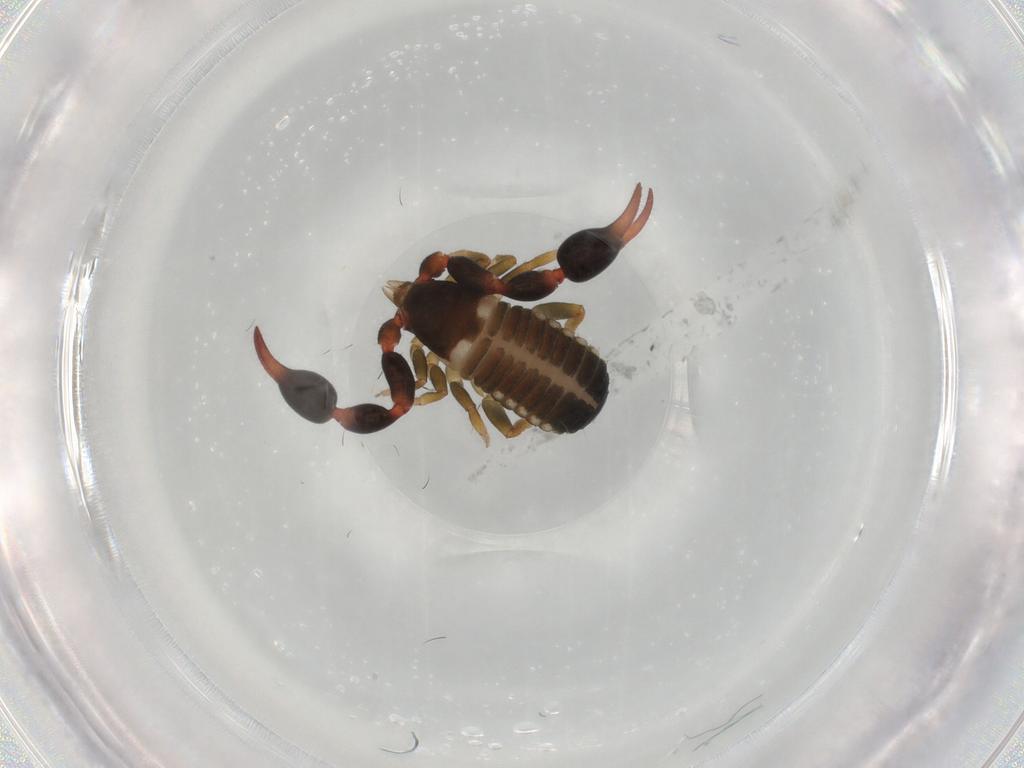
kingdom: Animalia
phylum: Arthropoda
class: Arachnida
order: Pseudoscorpiones
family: Chernetidae
